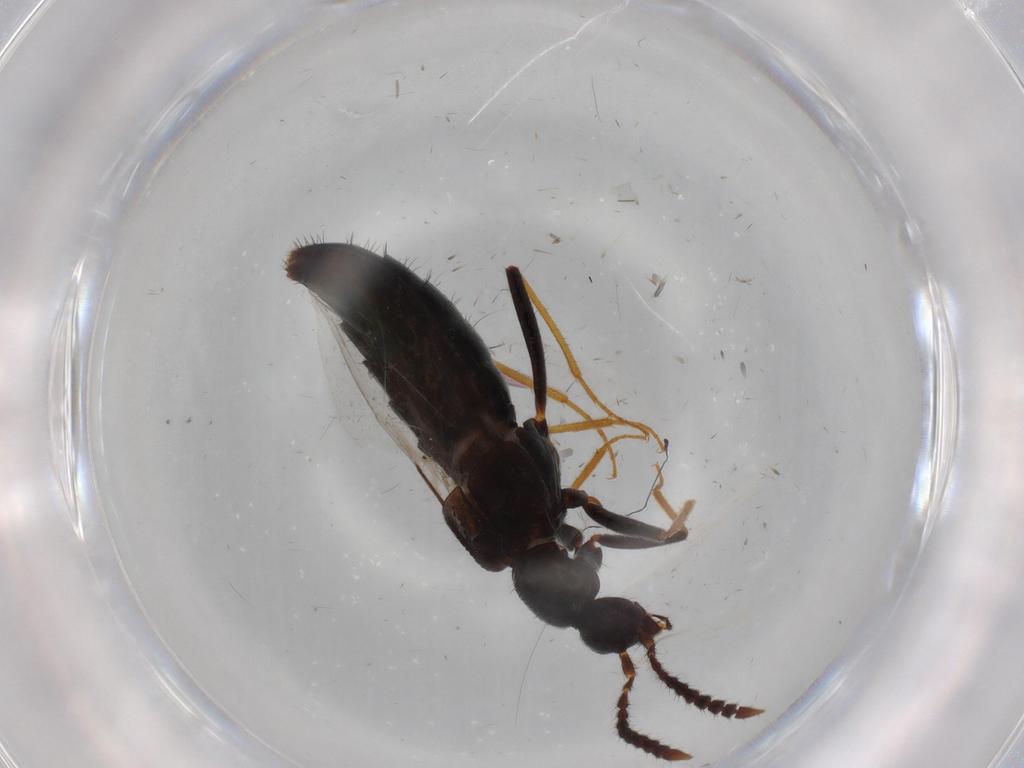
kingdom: Animalia
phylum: Arthropoda
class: Insecta
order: Coleoptera
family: Staphylinidae
